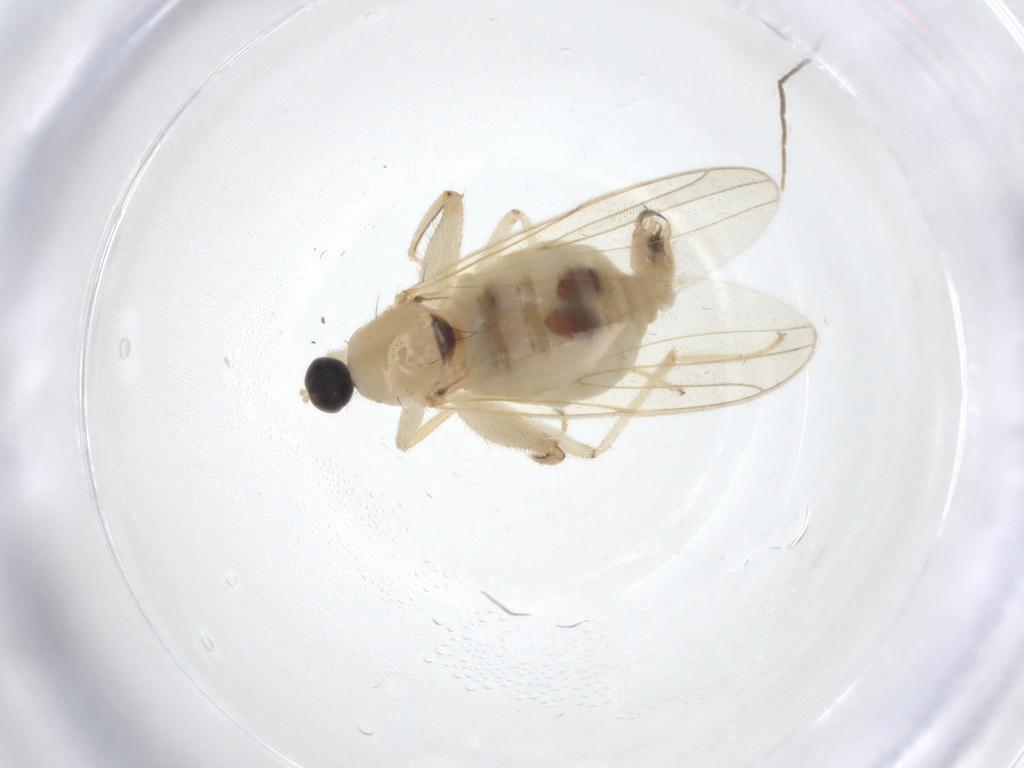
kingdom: Animalia
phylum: Arthropoda
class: Insecta
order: Diptera
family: Hybotidae
